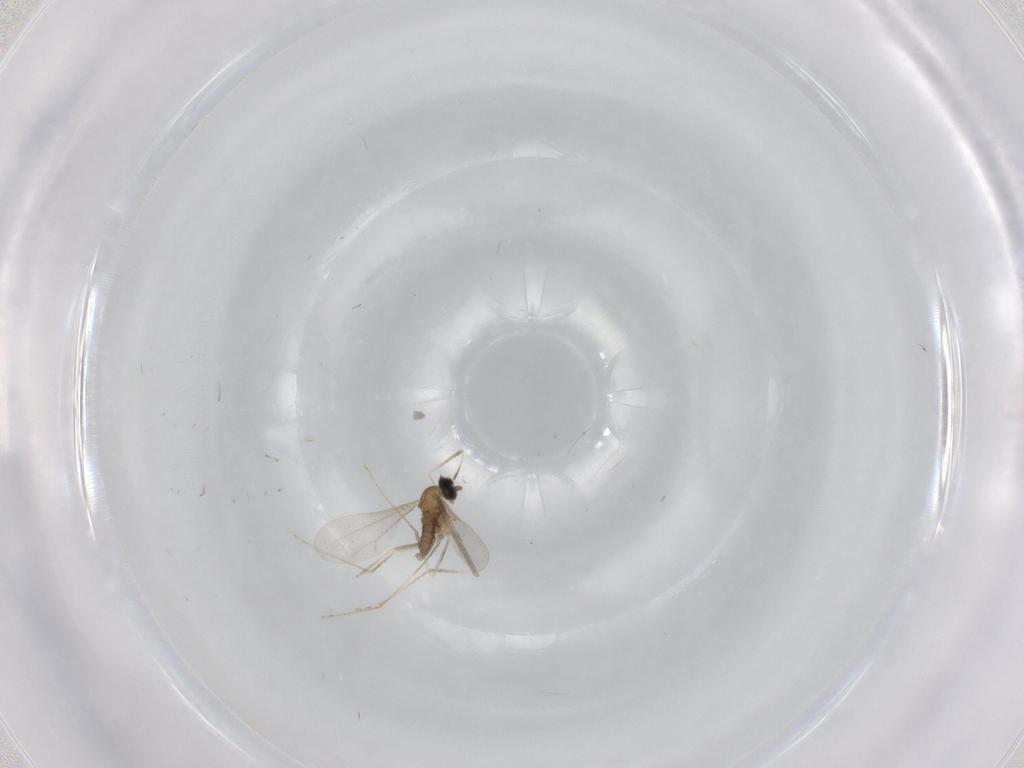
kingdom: Animalia
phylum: Arthropoda
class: Insecta
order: Diptera
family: Cecidomyiidae
